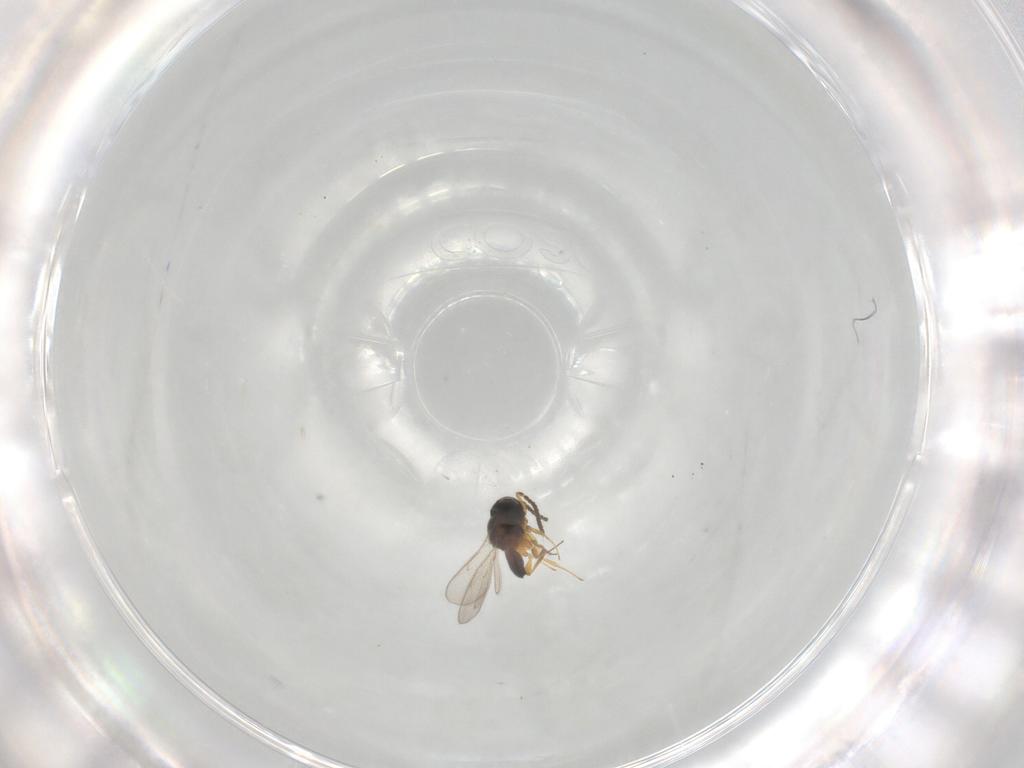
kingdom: Animalia
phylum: Arthropoda
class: Insecta
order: Hymenoptera
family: Scelionidae
